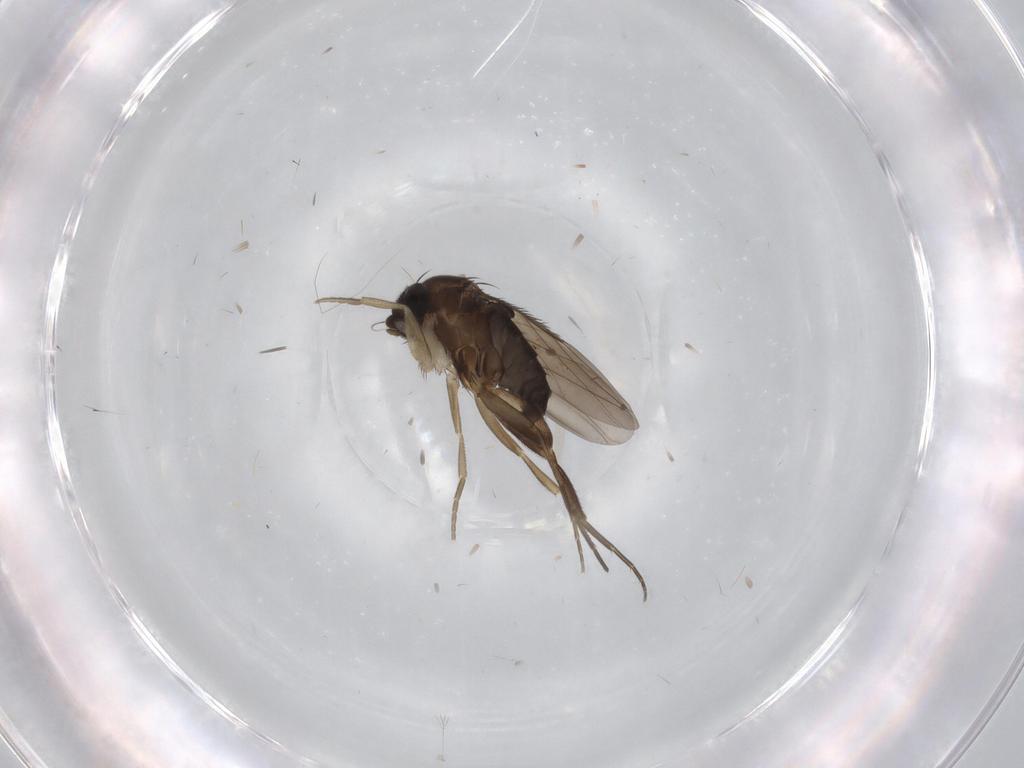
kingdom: Animalia
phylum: Arthropoda
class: Insecta
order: Diptera
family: Phoridae
